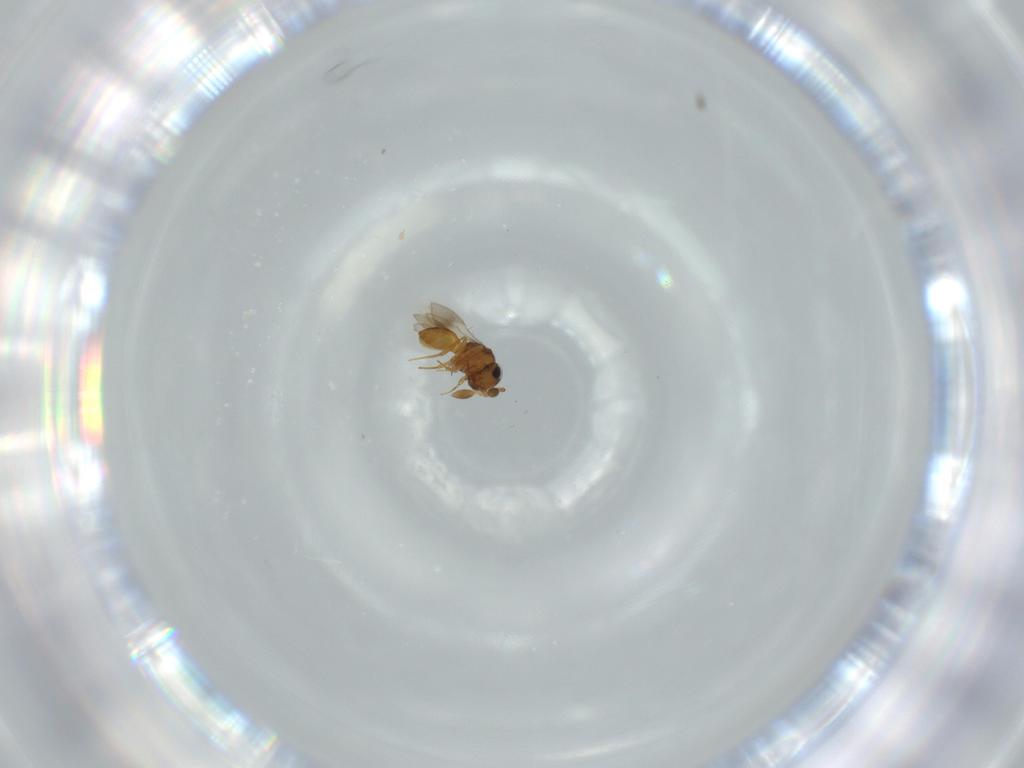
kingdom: Animalia
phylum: Arthropoda
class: Insecta
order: Hymenoptera
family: Scelionidae
